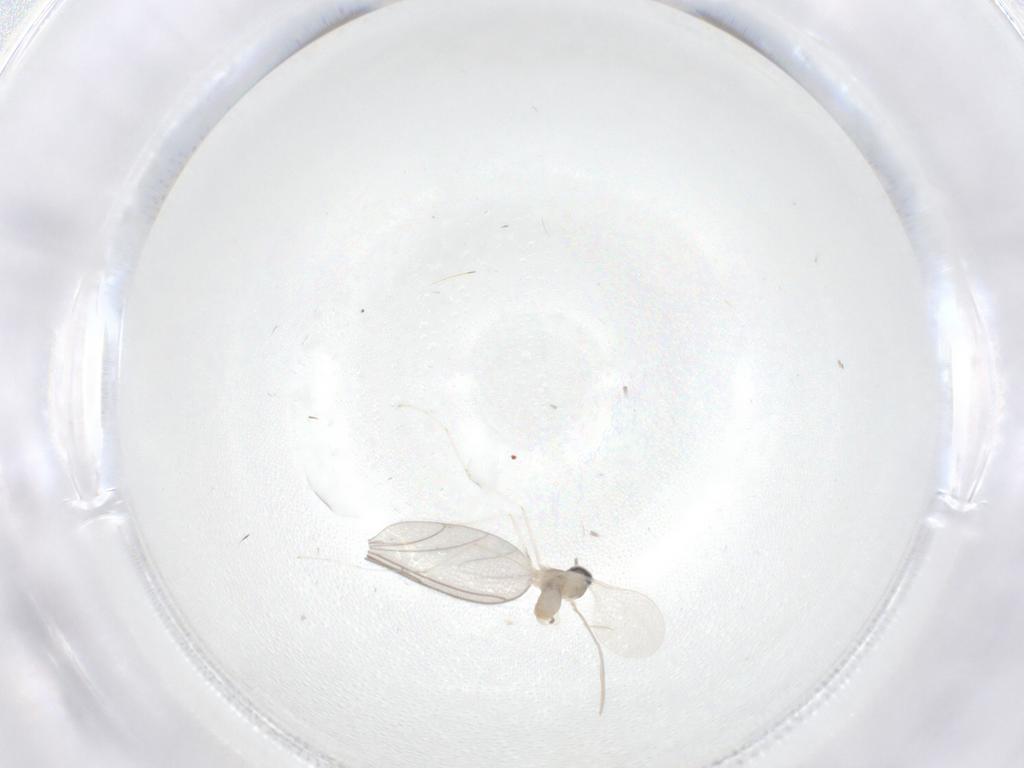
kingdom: Animalia
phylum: Arthropoda
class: Insecta
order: Diptera
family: Cecidomyiidae
